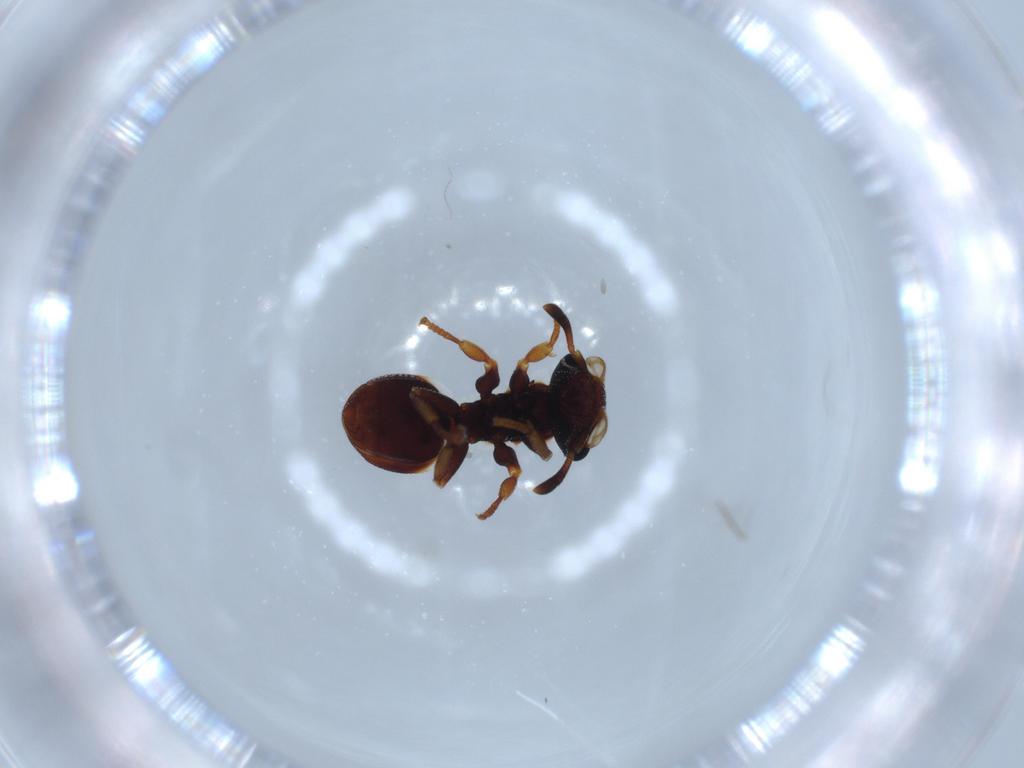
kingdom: Animalia
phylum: Arthropoda
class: Insecta
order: Hymenoptera
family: Formicidae
